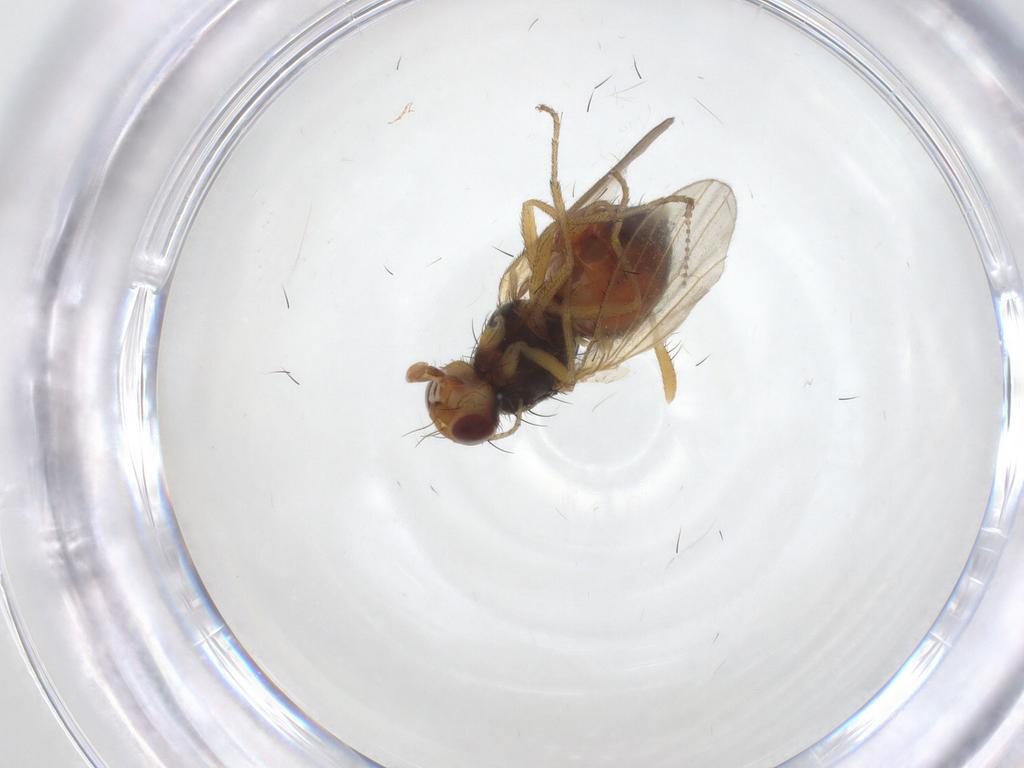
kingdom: Animalia
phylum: Arthropoda
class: Insecta
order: Diptera
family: Heleomyzidae
